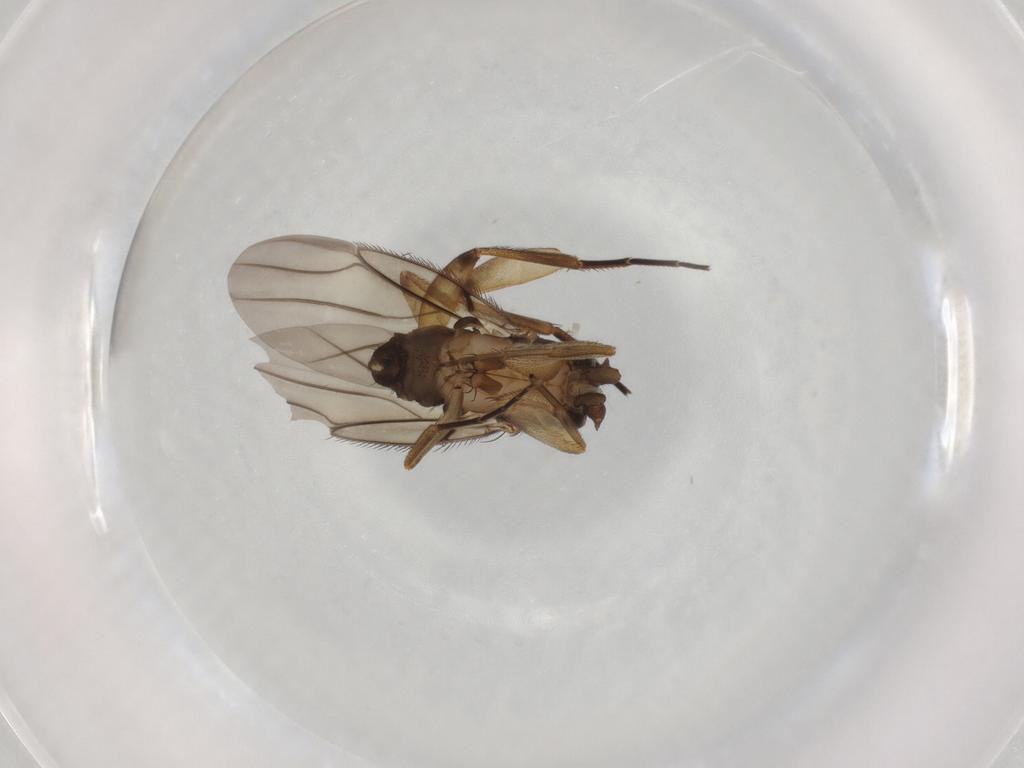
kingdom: Animalia
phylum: Arthropoda
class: Insecta
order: Diptera
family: Phoridae
